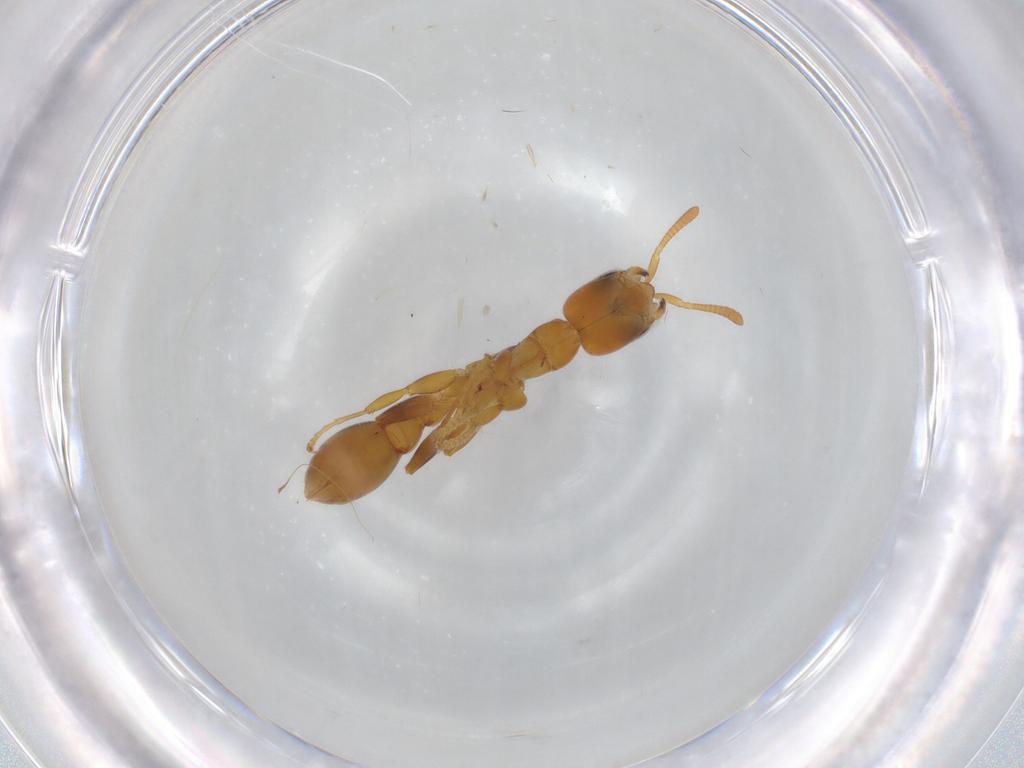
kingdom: Animalia
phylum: Arthropoda
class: Insecta
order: Hymenoptera
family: Formicidae
